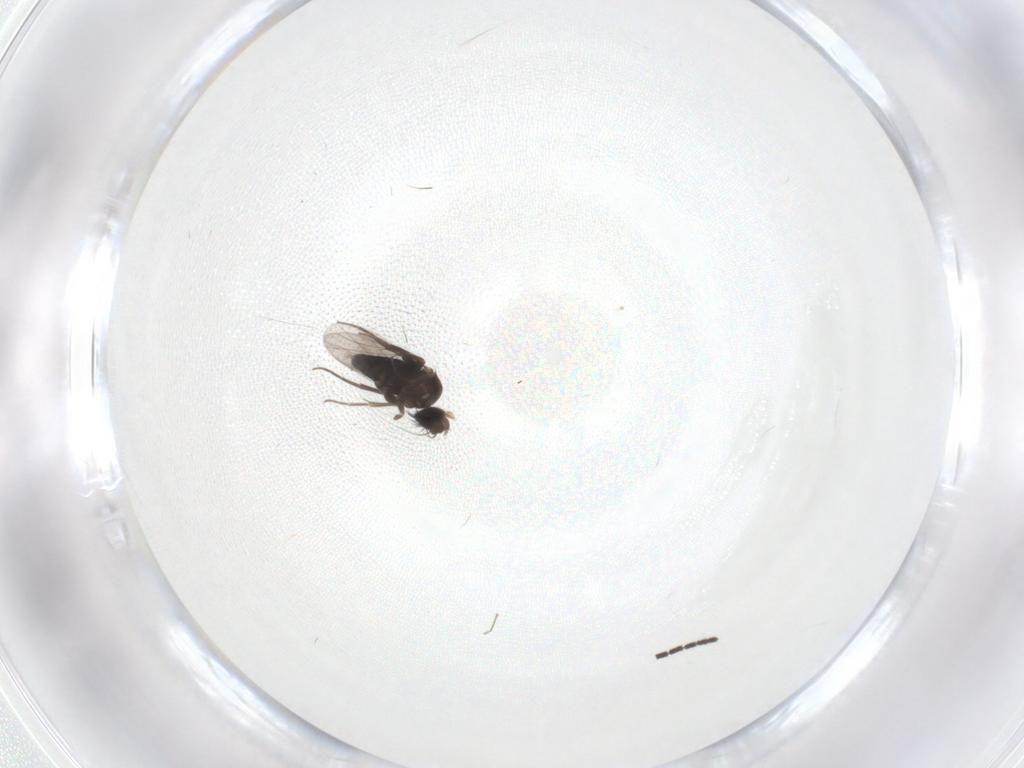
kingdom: Animalia
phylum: Arthropoda
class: Insecta
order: Diptera
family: Phoridae
